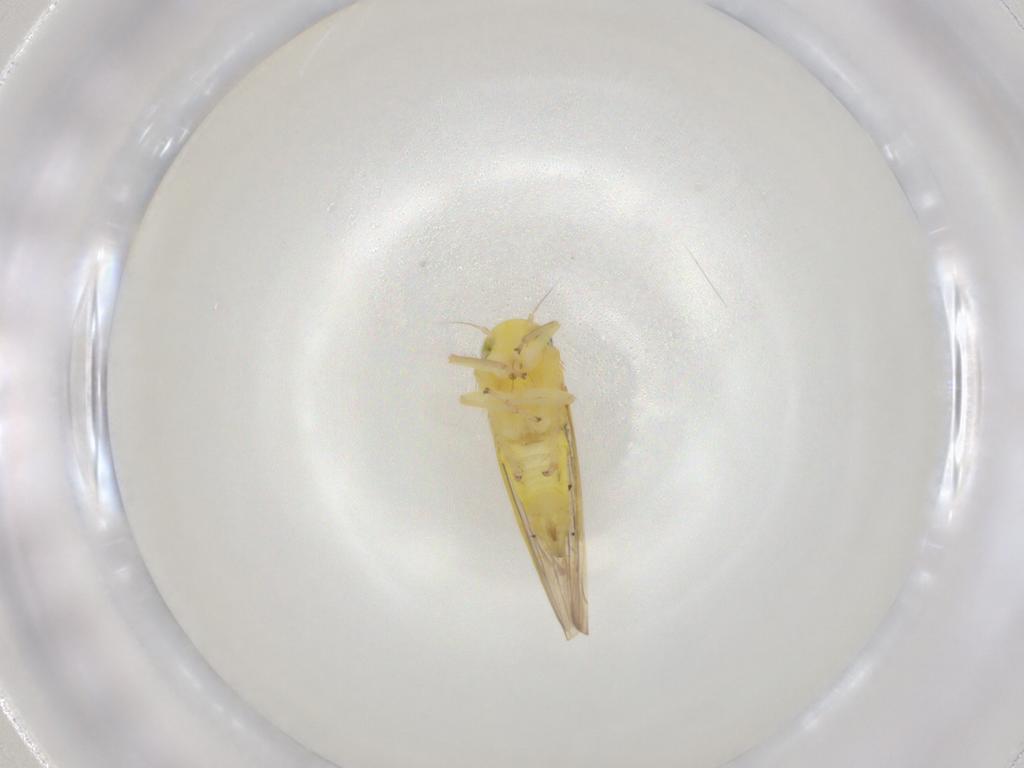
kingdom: Animalia
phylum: Arthropoda
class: Insecta
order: Hemiptera
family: Cicadellidae
